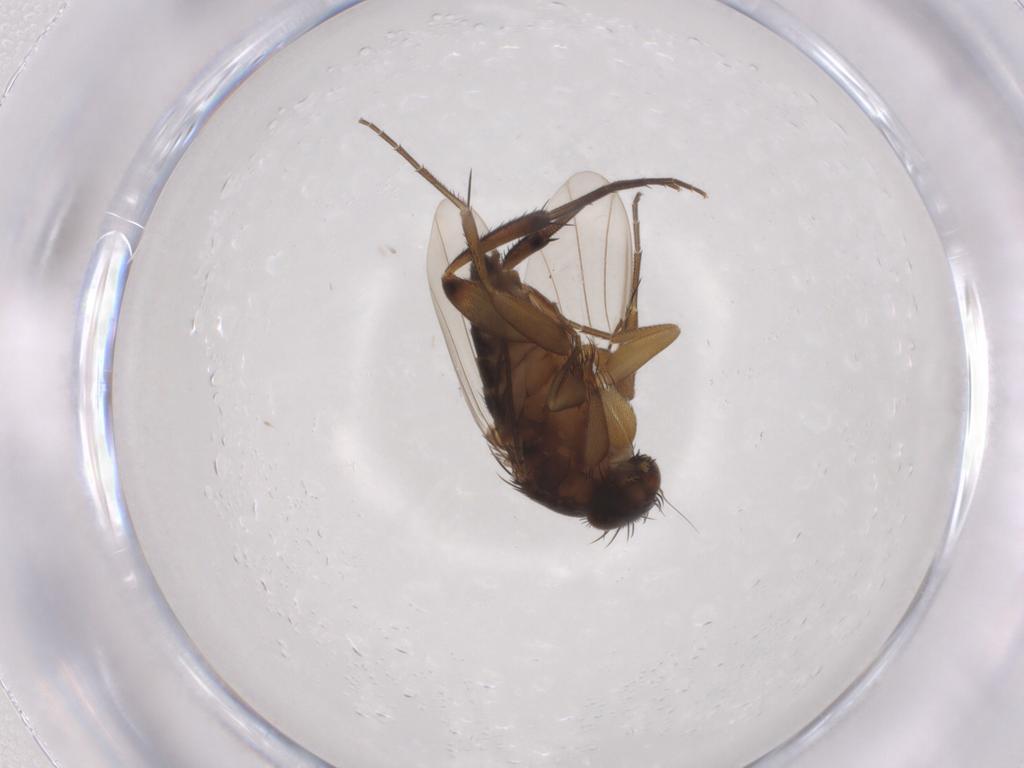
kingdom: Animalia
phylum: Arthropoda
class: Insecta
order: Diptera
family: Phoridae
